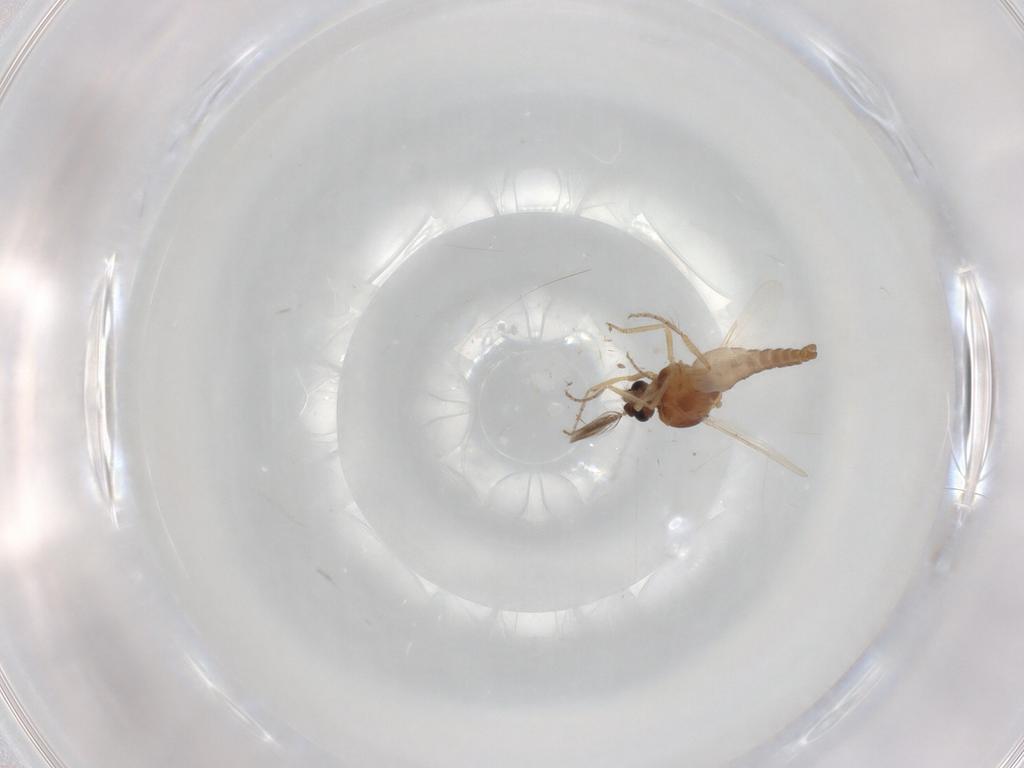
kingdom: Animalia
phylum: Arthropoda
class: Insecta
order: Diptera
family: Ceratopogonidae
